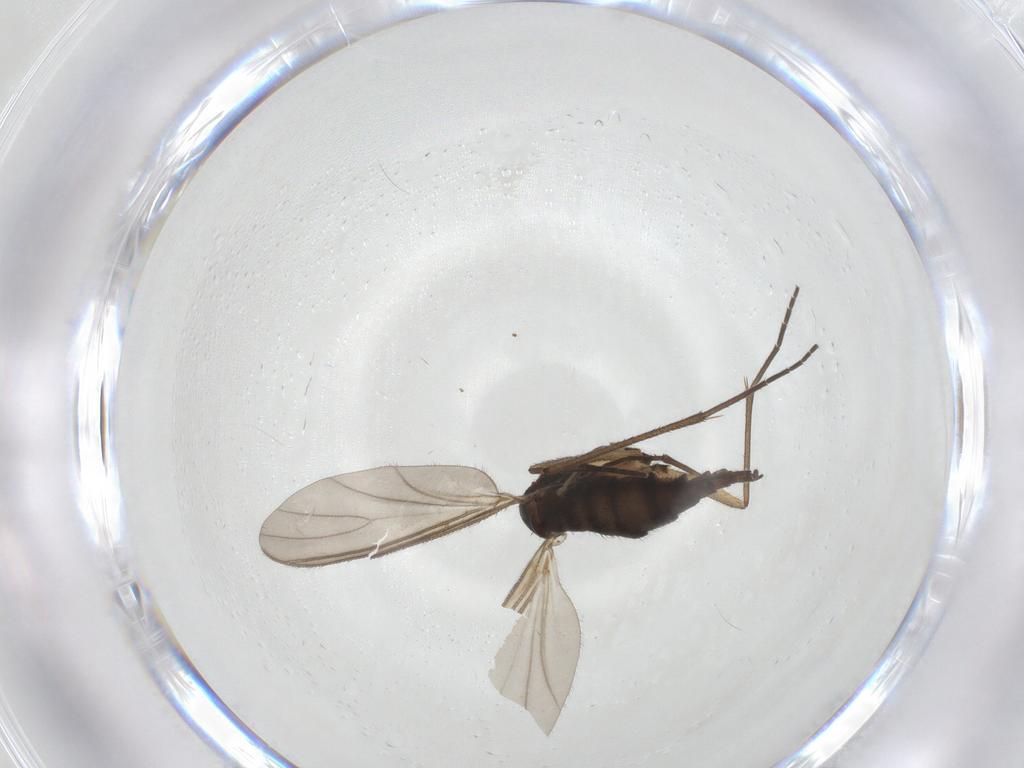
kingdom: Animalia
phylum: Arthropoda
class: Insecta
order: Diptera
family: Sciaridae
